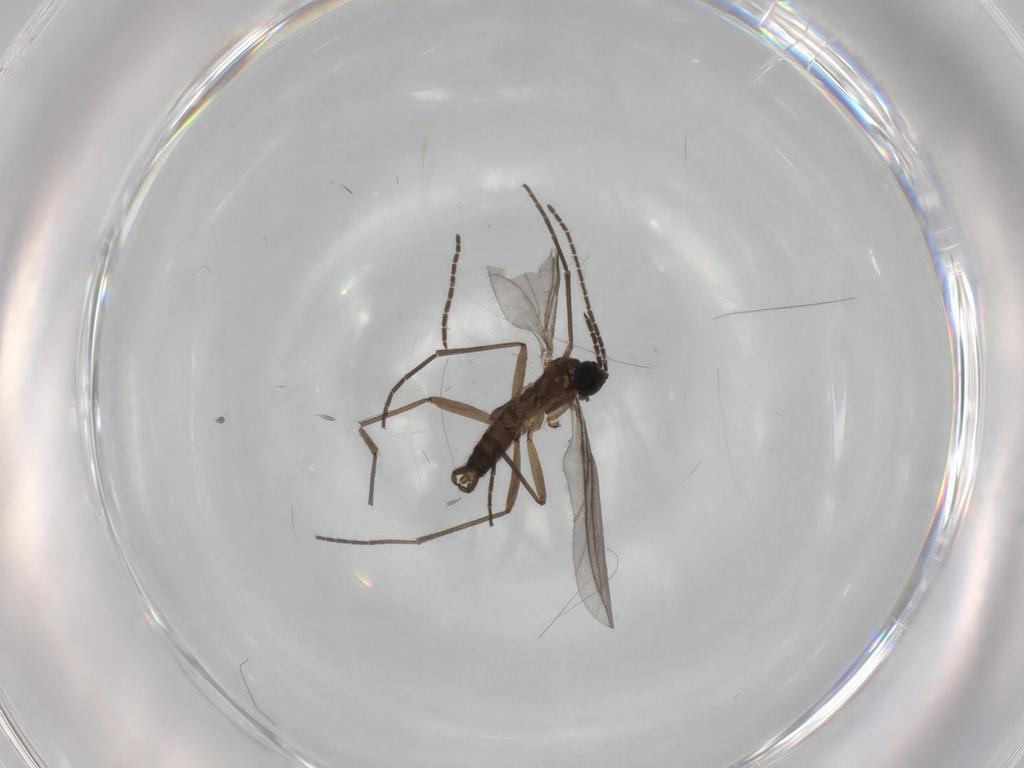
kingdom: Animalia
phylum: Arthropoda
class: Insecta
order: Diptera
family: Sciaridae
